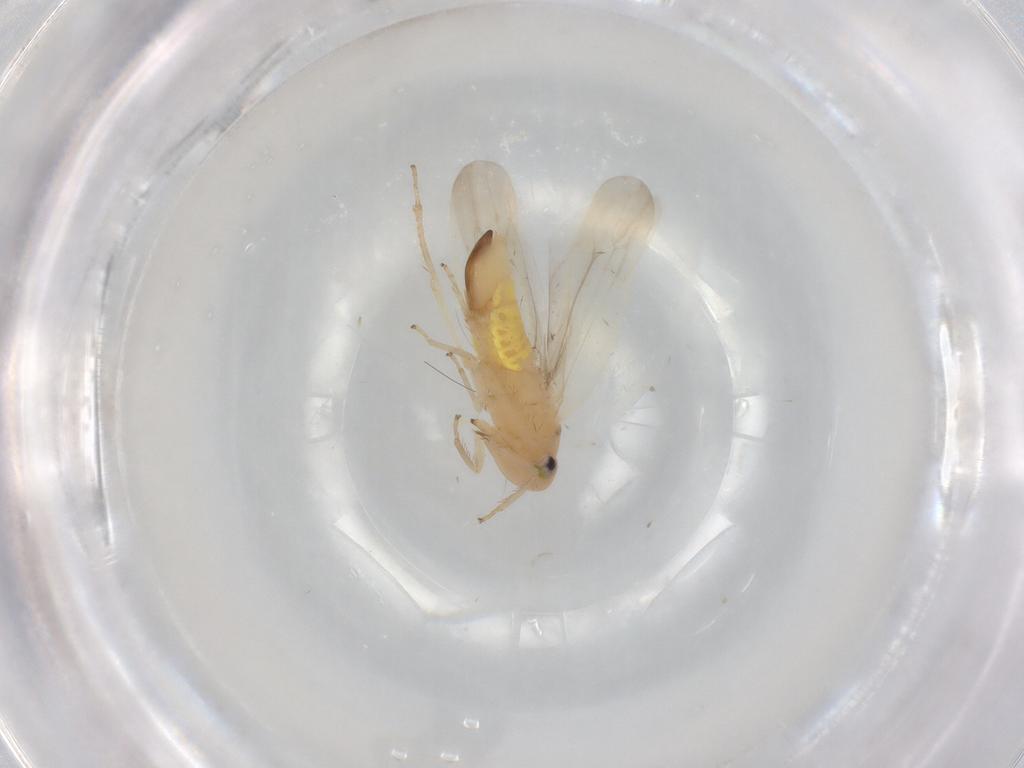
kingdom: Animalia
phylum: Arthropoda
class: Insecta
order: Hemiptera
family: Cicadellidae
